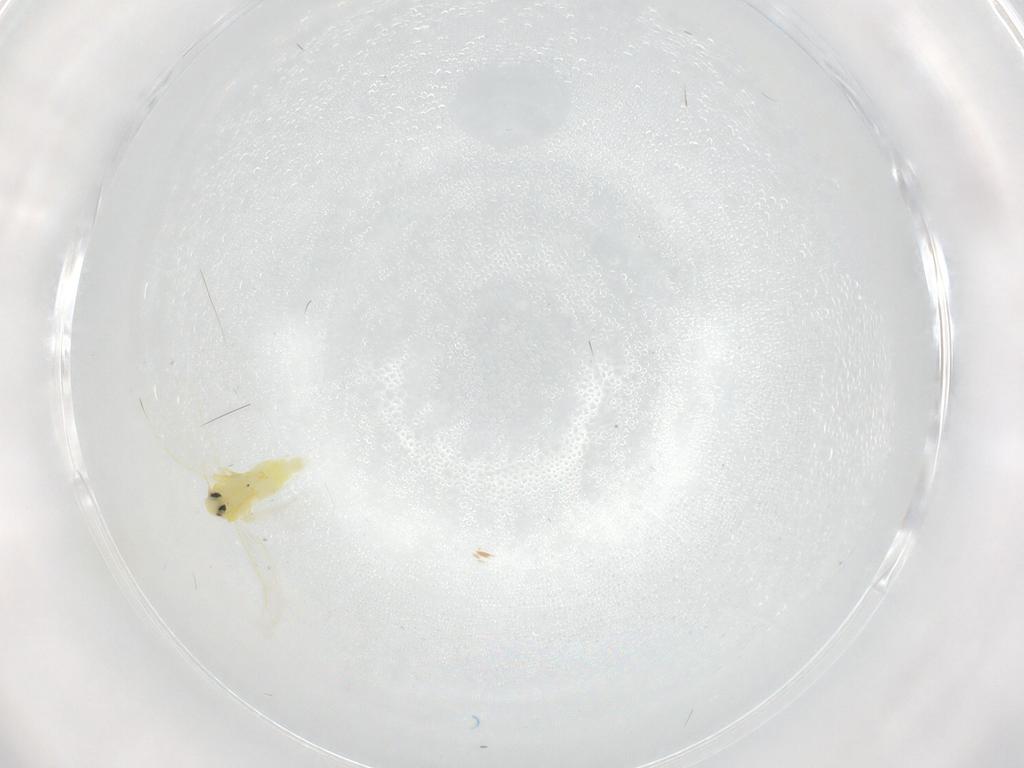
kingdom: Animalia
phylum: Arthropoda
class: Insecta
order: Hemiptera
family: Aleyrodidae
